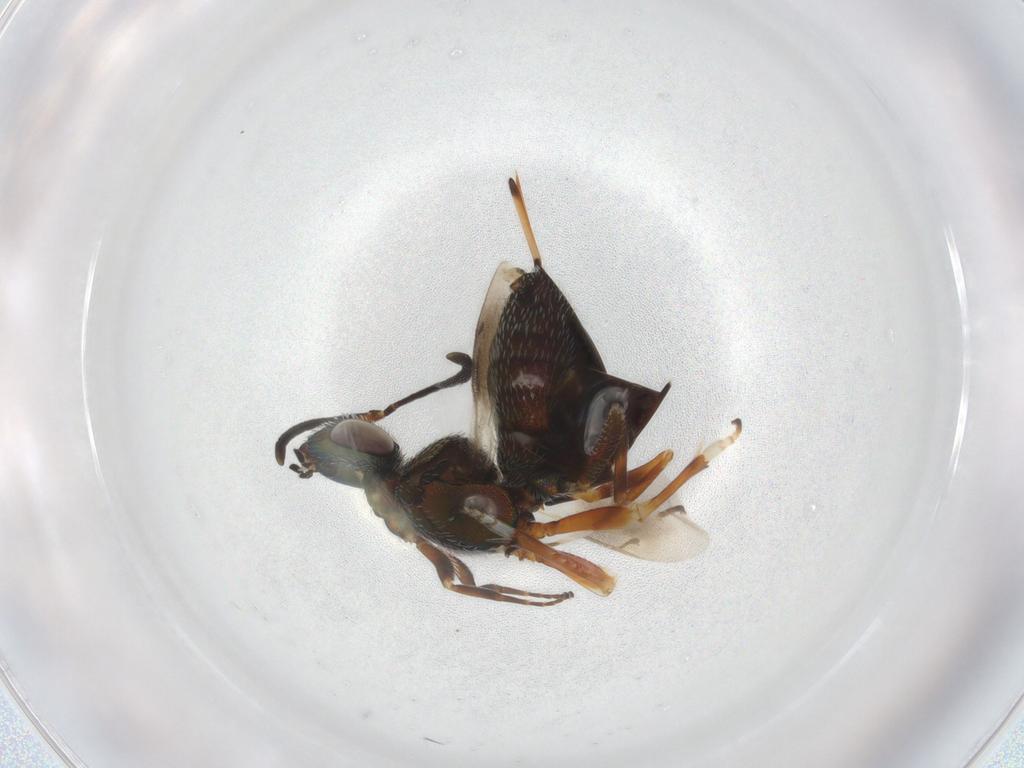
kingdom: Animalia
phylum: Arthropoda
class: Insecta
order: Hymenoptera
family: Eupelmidae
